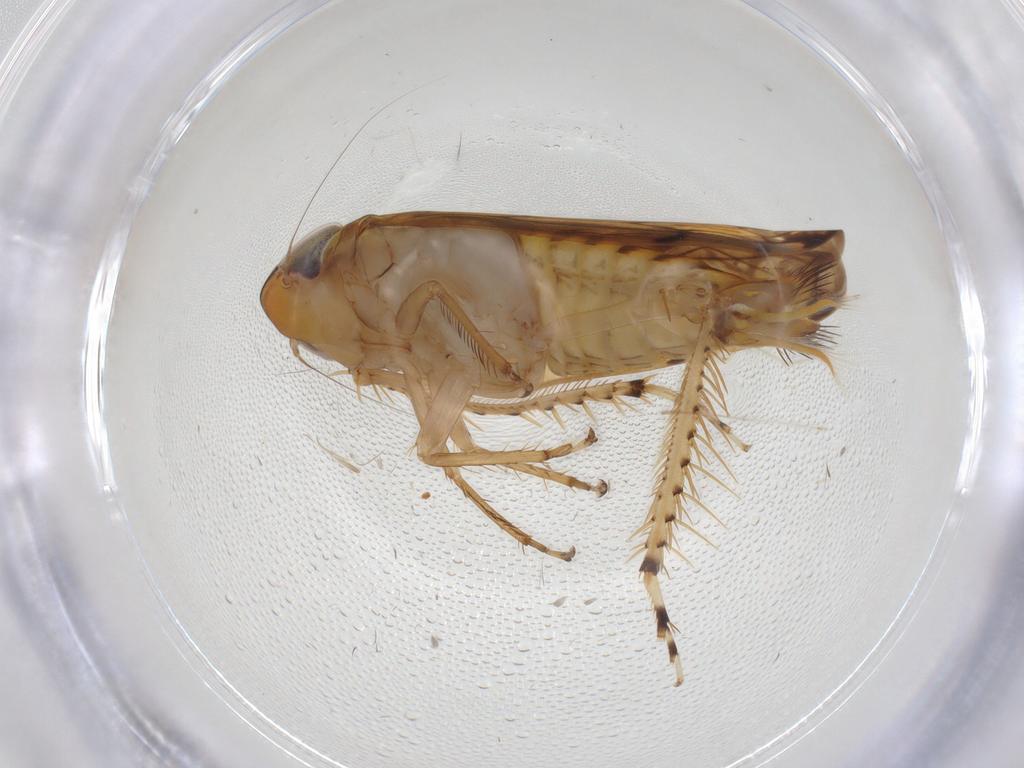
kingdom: Animalia
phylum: Arthropoda
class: Insecta
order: Hemiptera
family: Cicadellidae
